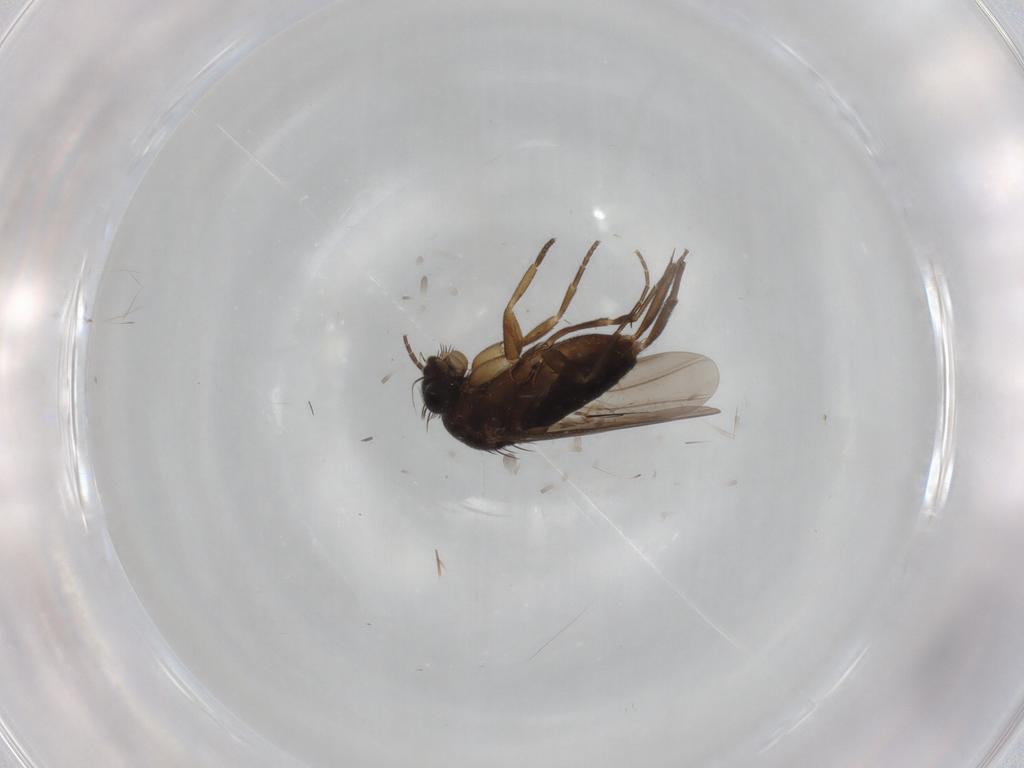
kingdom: Animalia
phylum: Arthropoda
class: Insecta
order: Diptera
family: Phoridae
